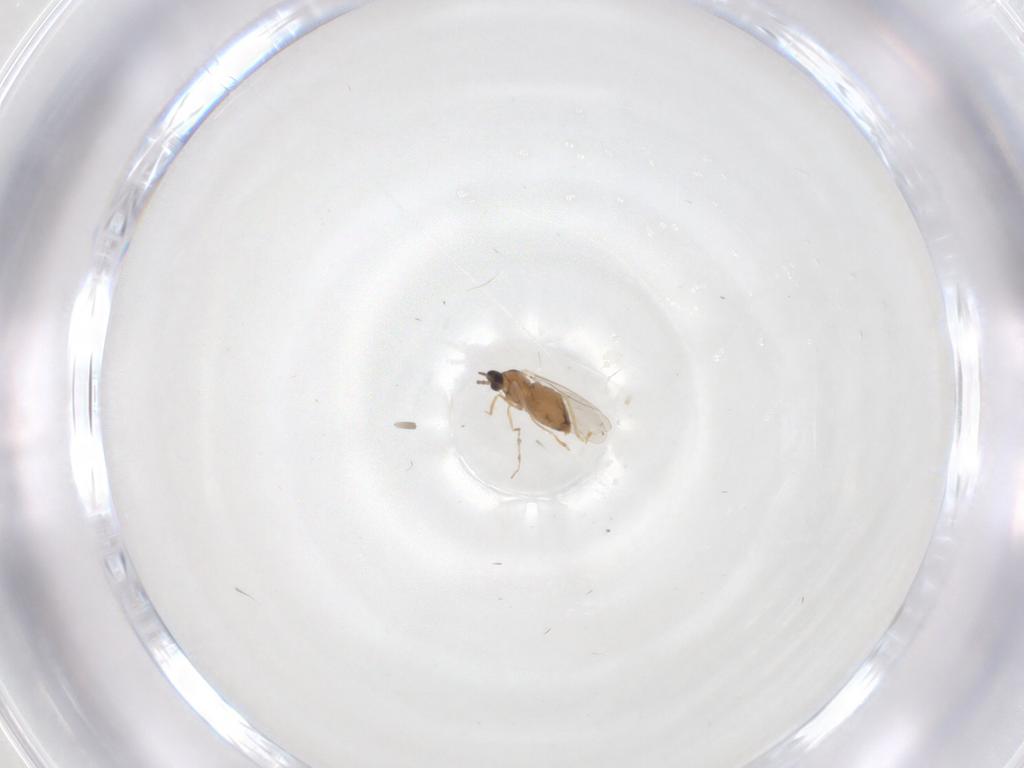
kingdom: Animalia
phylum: Arthropoda
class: Insecta
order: Diptera
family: Cecidomyiidae
